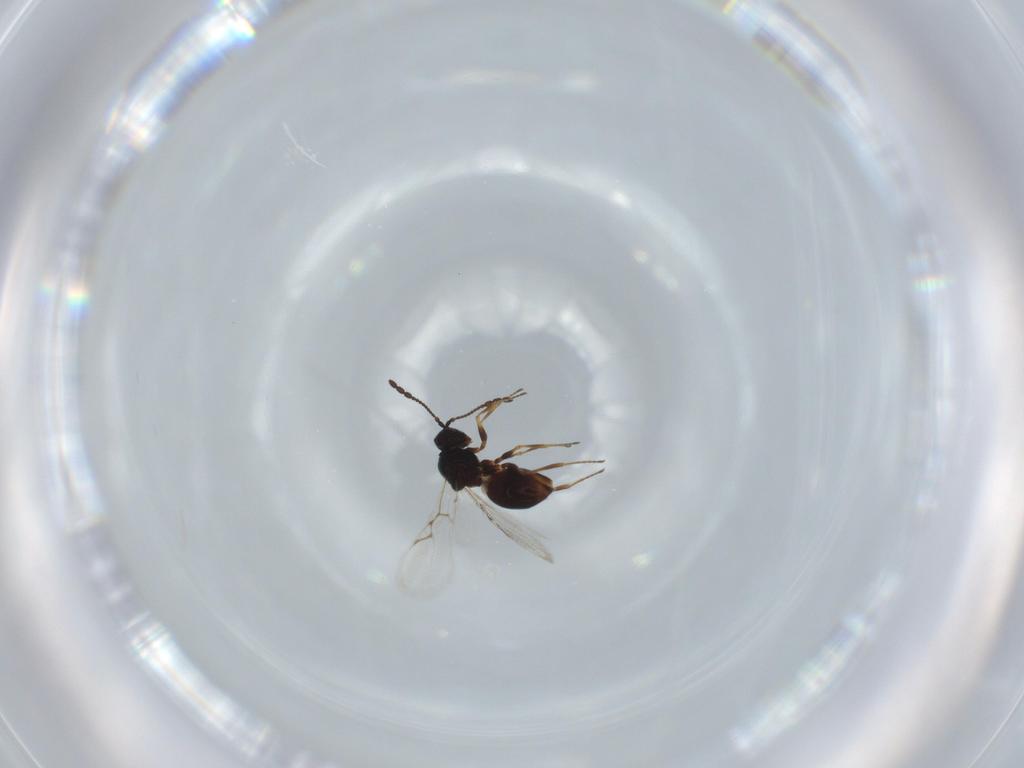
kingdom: Animalia
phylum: Arthropoda
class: Insecta
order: Hymenoptera
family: Figitidae
